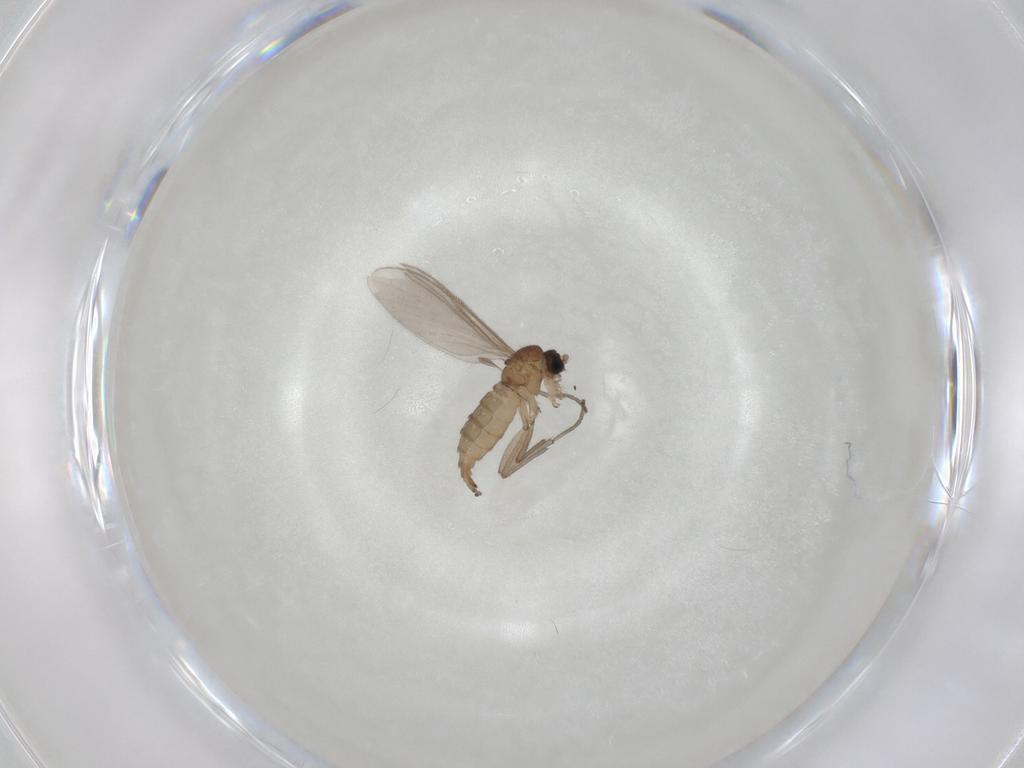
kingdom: Animalia
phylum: Arthropoda
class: Insecta
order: Diptera
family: Sciaridae
